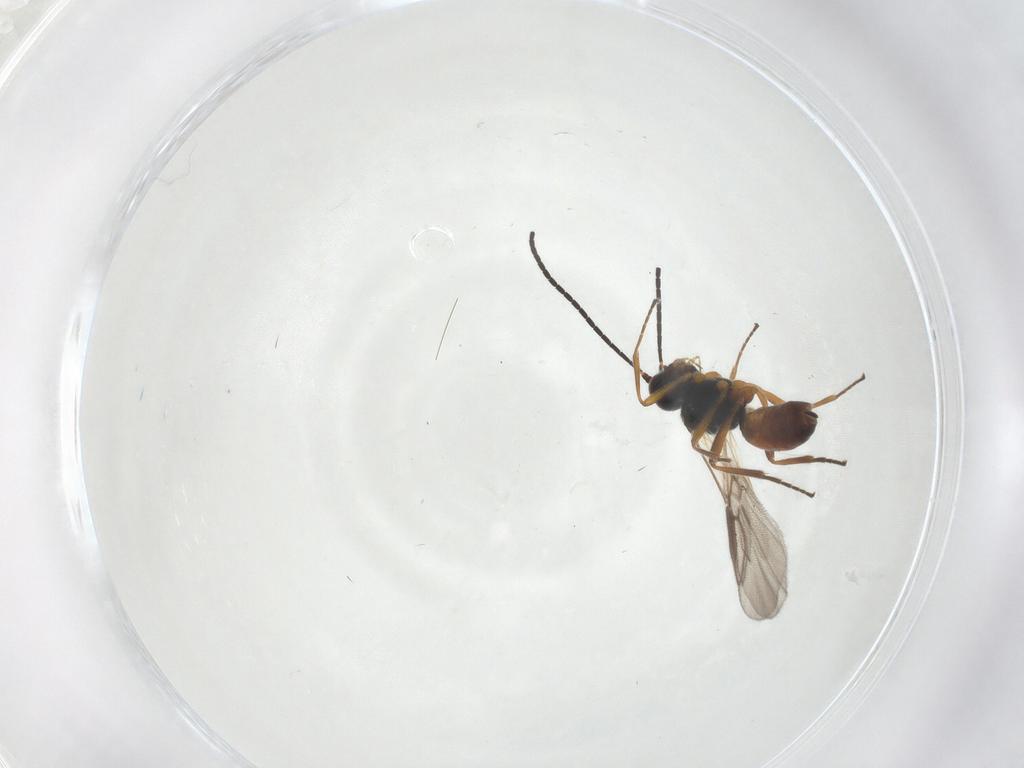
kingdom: Animalia
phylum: Arthropoda
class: Insecta
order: Hymenoptera
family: Braconidae
